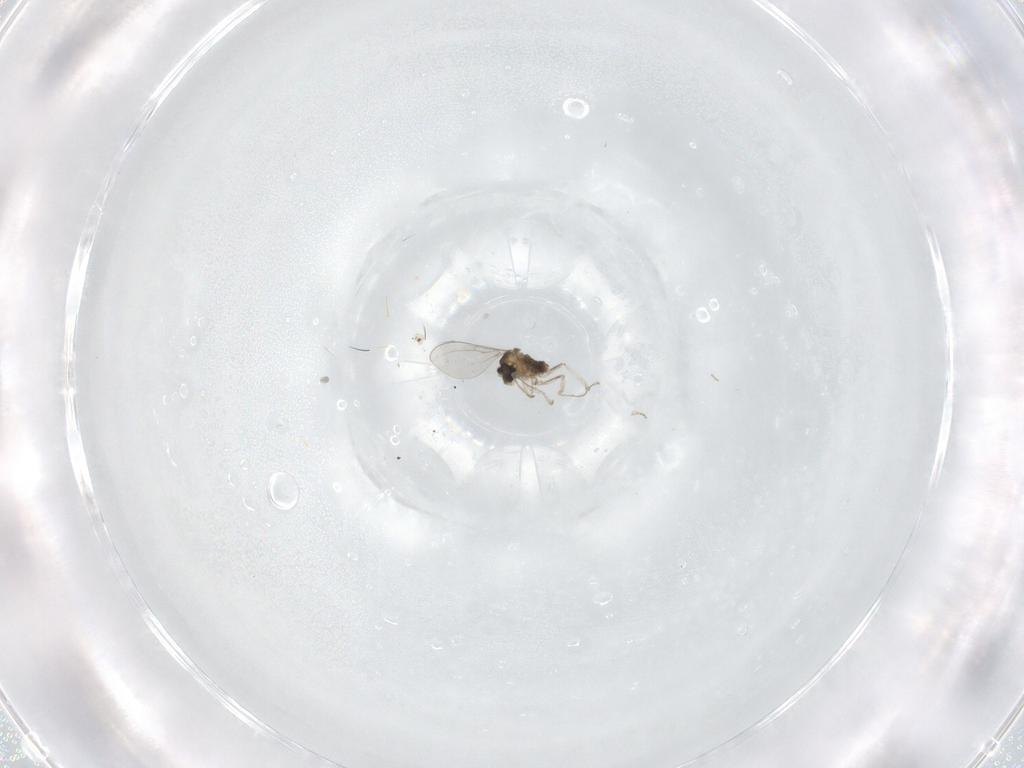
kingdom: Animalia
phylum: Arthropoda
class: Insecta
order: Diptera
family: Cecidomyiidae
